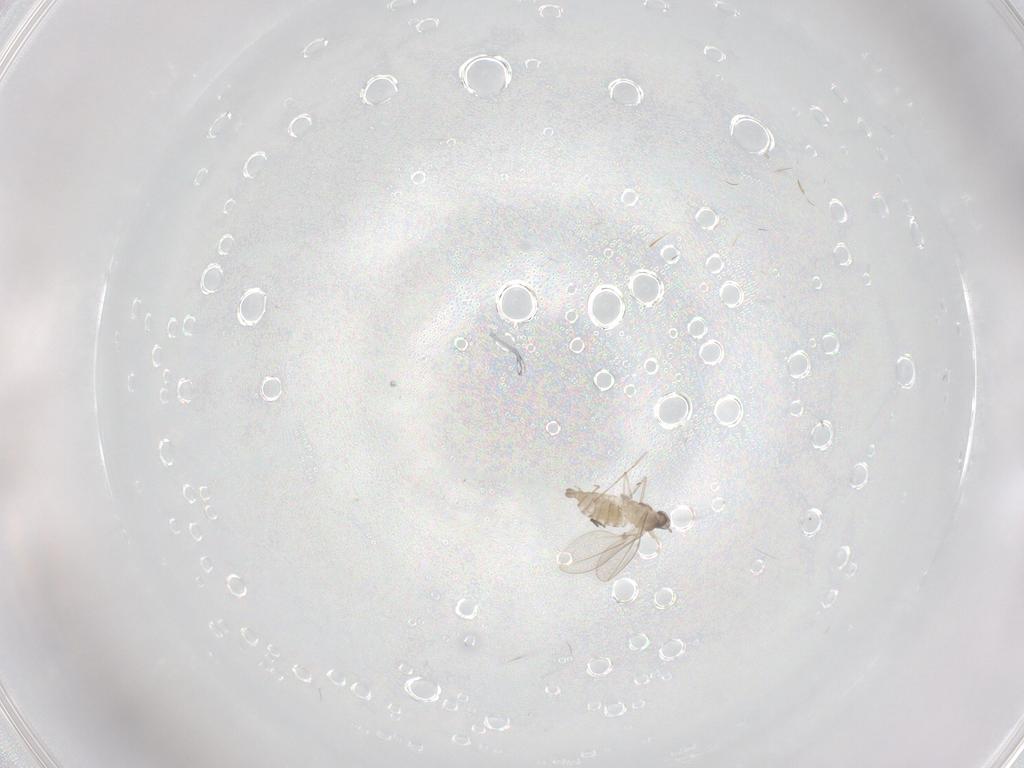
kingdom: Animalia
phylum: Arthropoda
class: Insecta
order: Diptera
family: Cecidomyiidae
